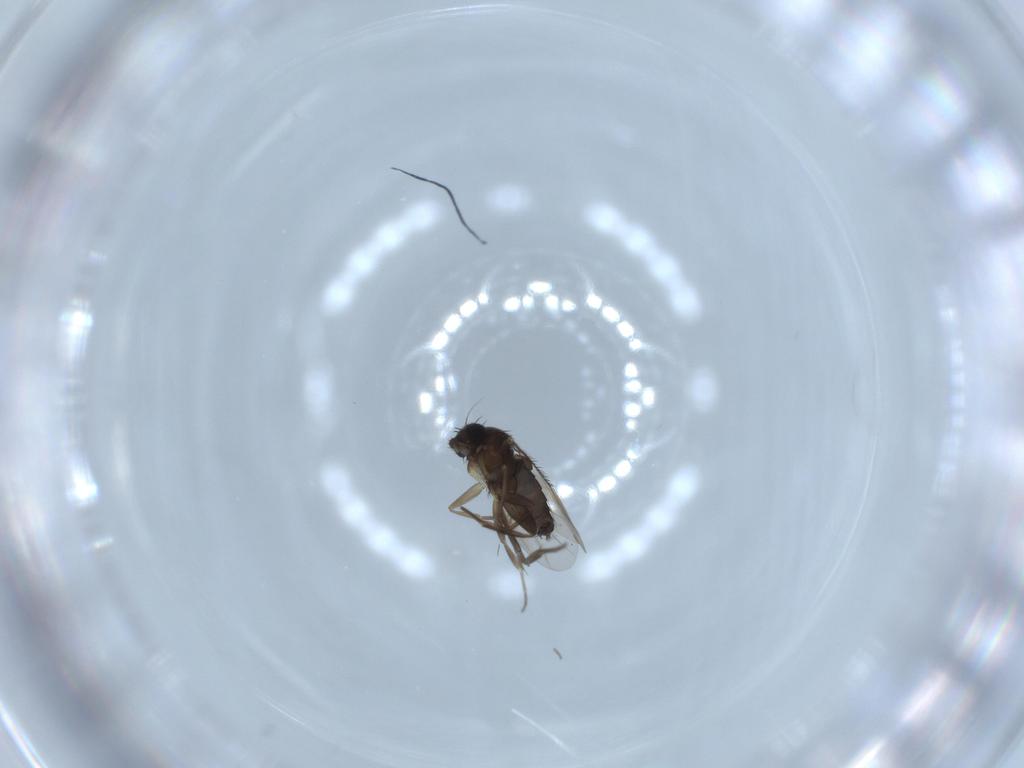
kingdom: Animalia
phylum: Arthropoda
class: Insecta
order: Diptera
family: Phoridae
